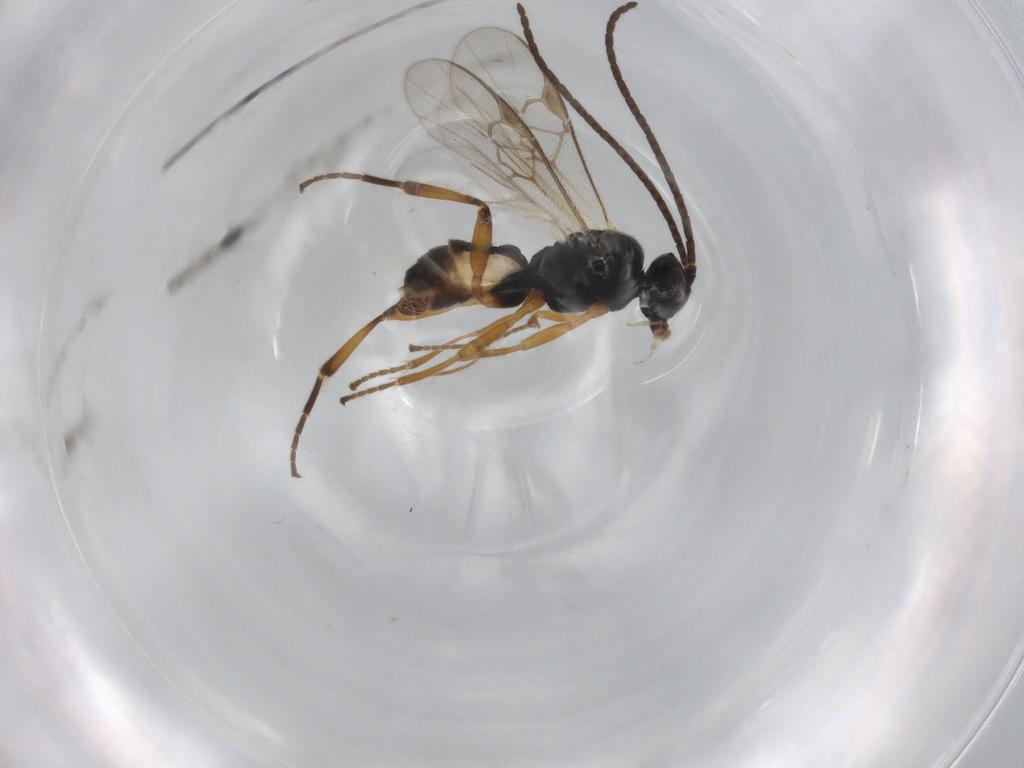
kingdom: Animalia
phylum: Arthropoda
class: Insecta
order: Hymenoptera
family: Braconidae
